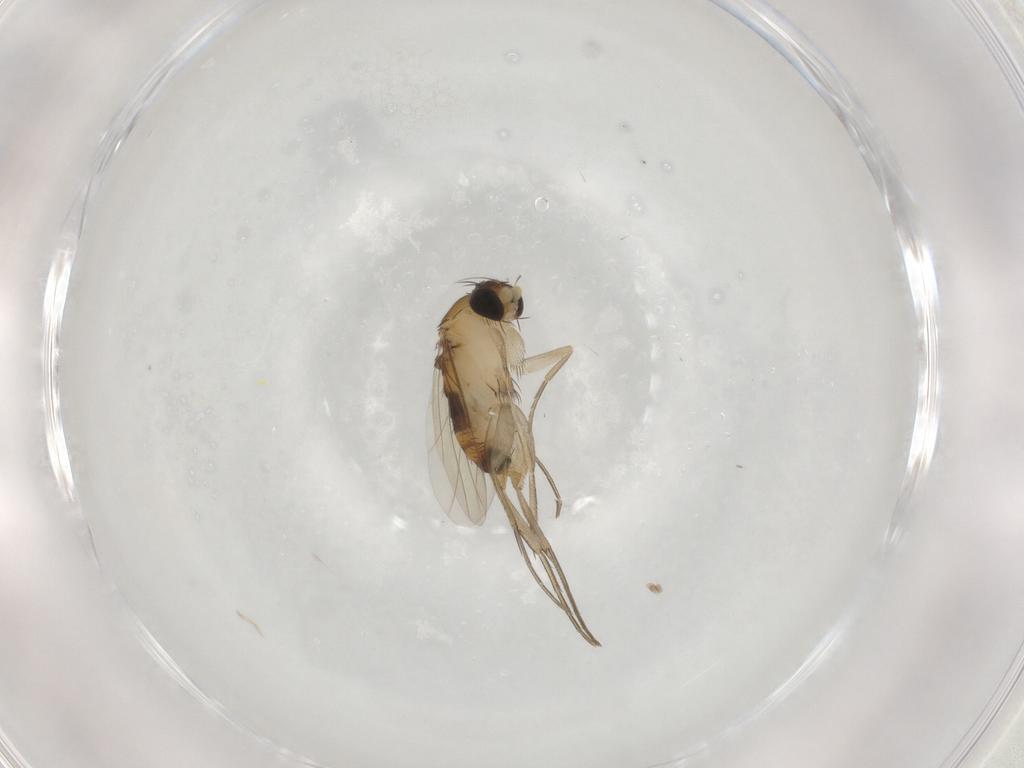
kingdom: Animalia
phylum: Arthropoda
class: Insecta
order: Diptera
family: Phoridae
